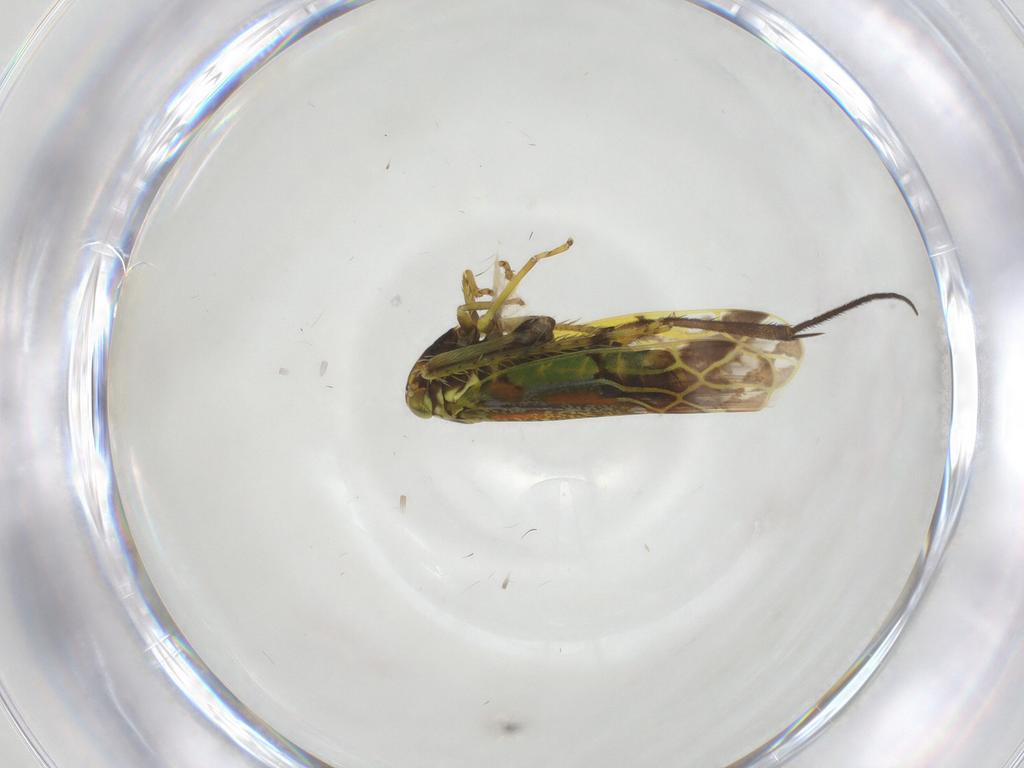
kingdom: Animalia
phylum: Arthropoda
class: Insecta
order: Hemiptera
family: Cicadellidae
